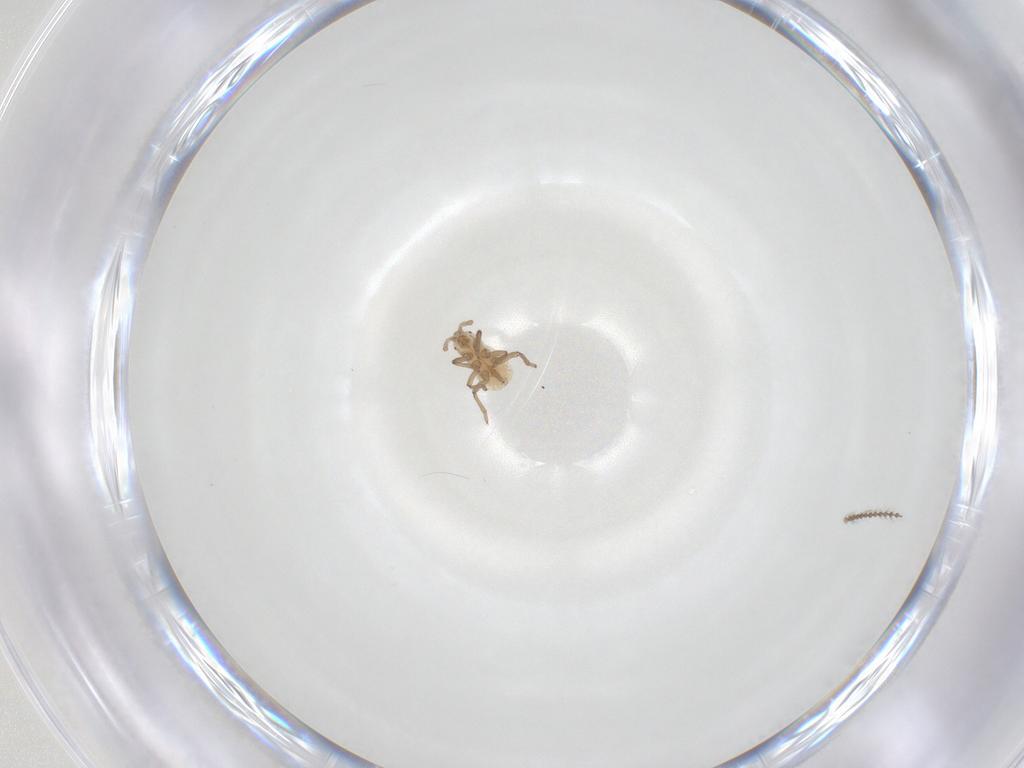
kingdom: Animalia
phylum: Arthropoda
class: Insecta
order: Hemiptera
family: Aphididae
